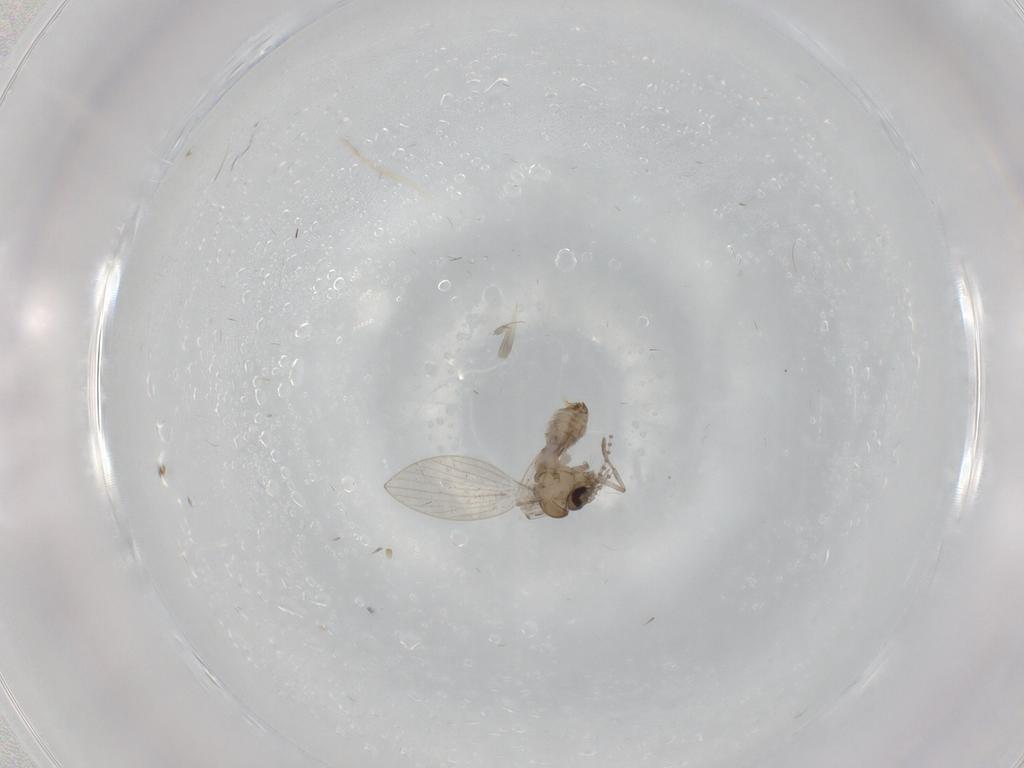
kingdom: Animalia
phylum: Arthropoda
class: Insecta
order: Diptera
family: Psychodidae
